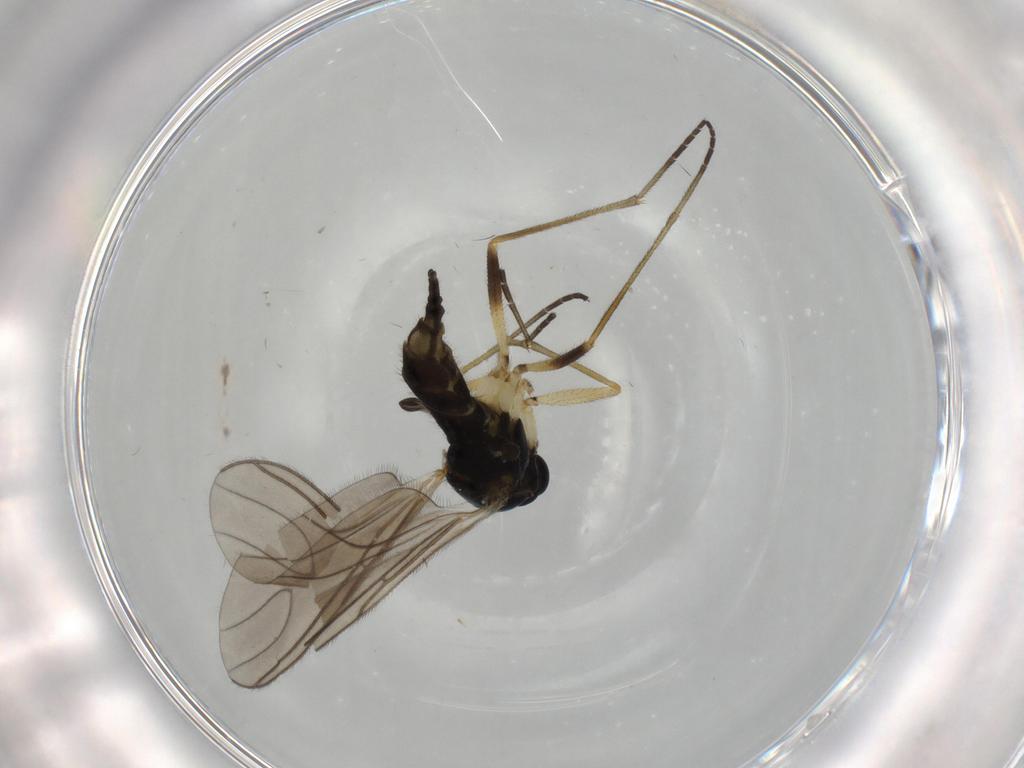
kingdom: Animalia
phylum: Arthropoda
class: Insecta
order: Diptera
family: Sciaridae
